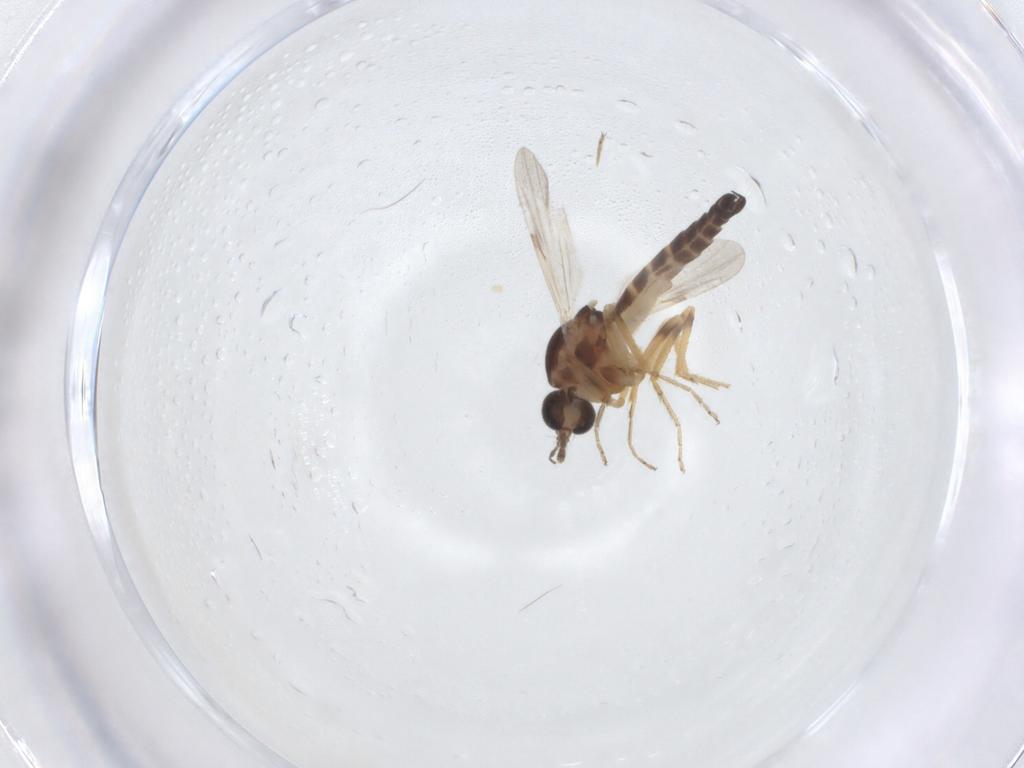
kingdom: Animalia
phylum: Arthropoda
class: Insecta
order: Diptera
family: Ceratopogonidae
